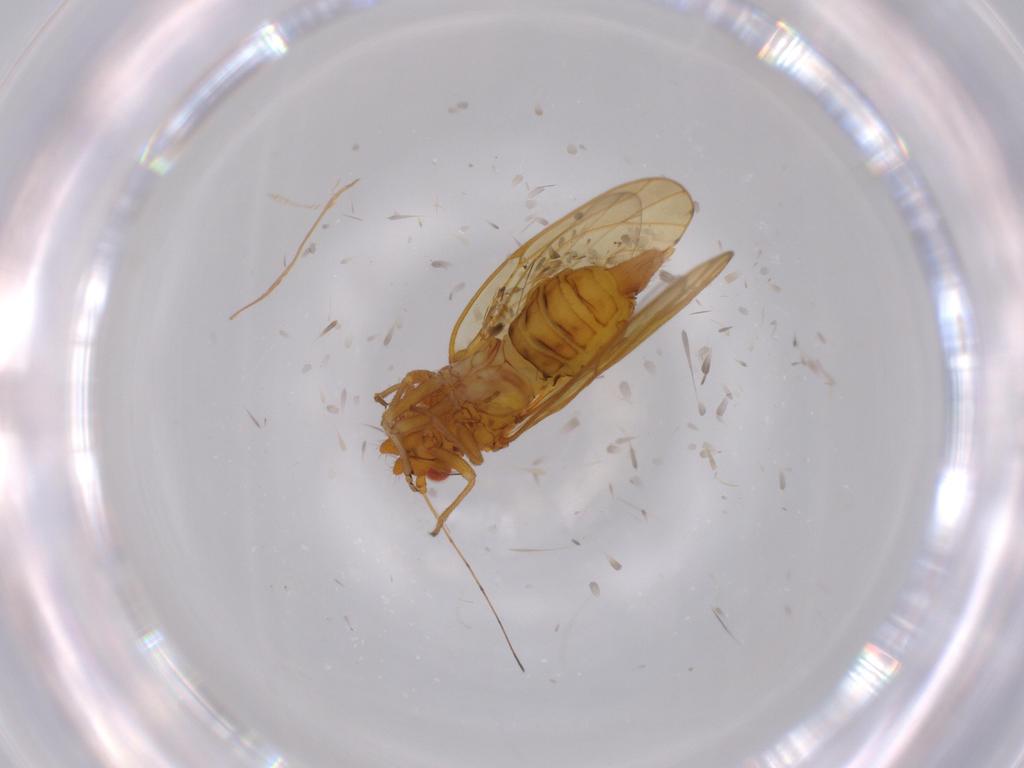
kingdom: Animalia
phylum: Arthropoda
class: Insecta
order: Hemiptera
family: Psylloidea_incertae_sedis
